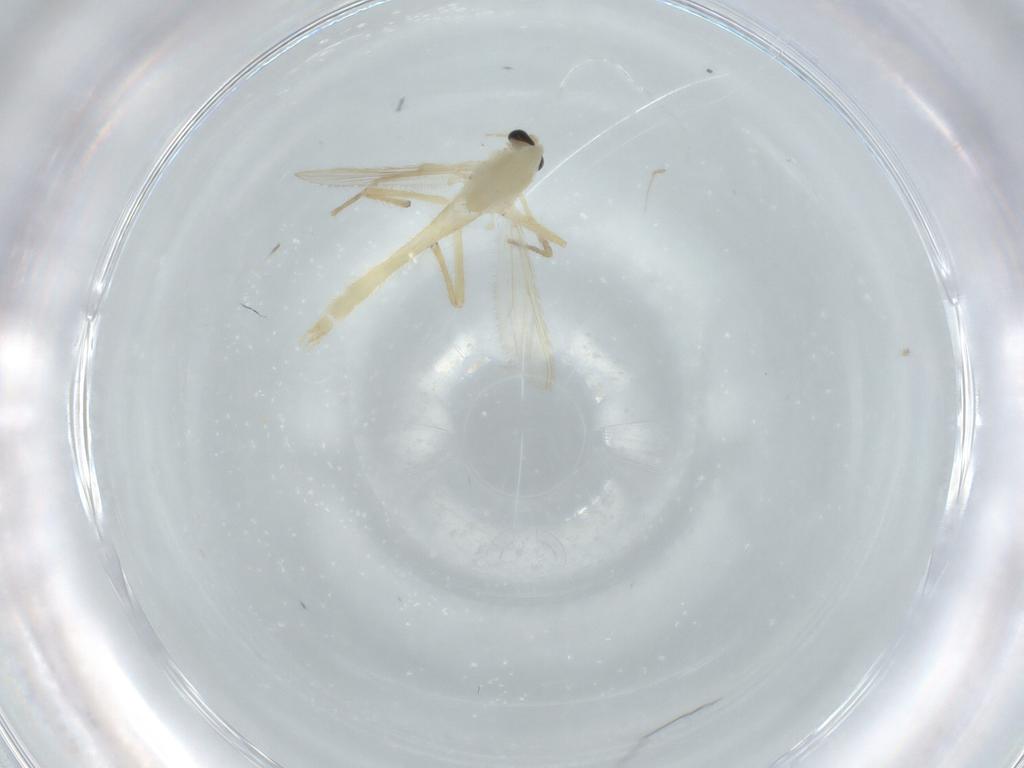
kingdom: Animalia
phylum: Arthropoda
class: Insecta
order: Diptera
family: Chironomidae
